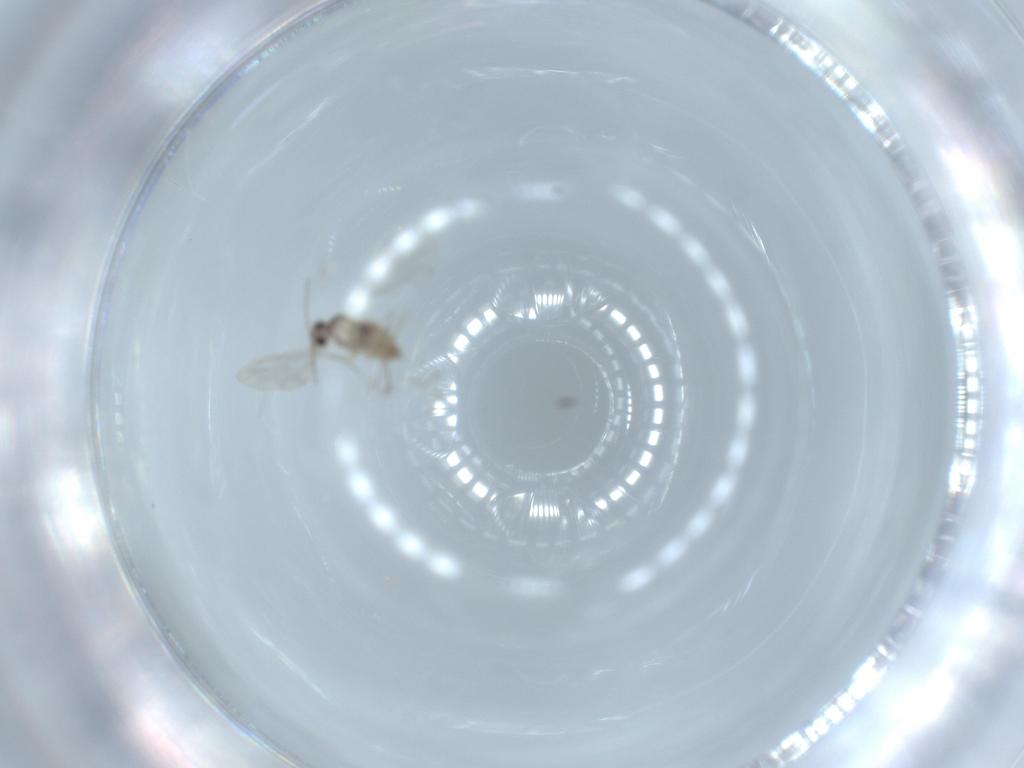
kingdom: Animalia
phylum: Arthropoda
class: Insecta
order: Diptera
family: Cecidomyiidae
